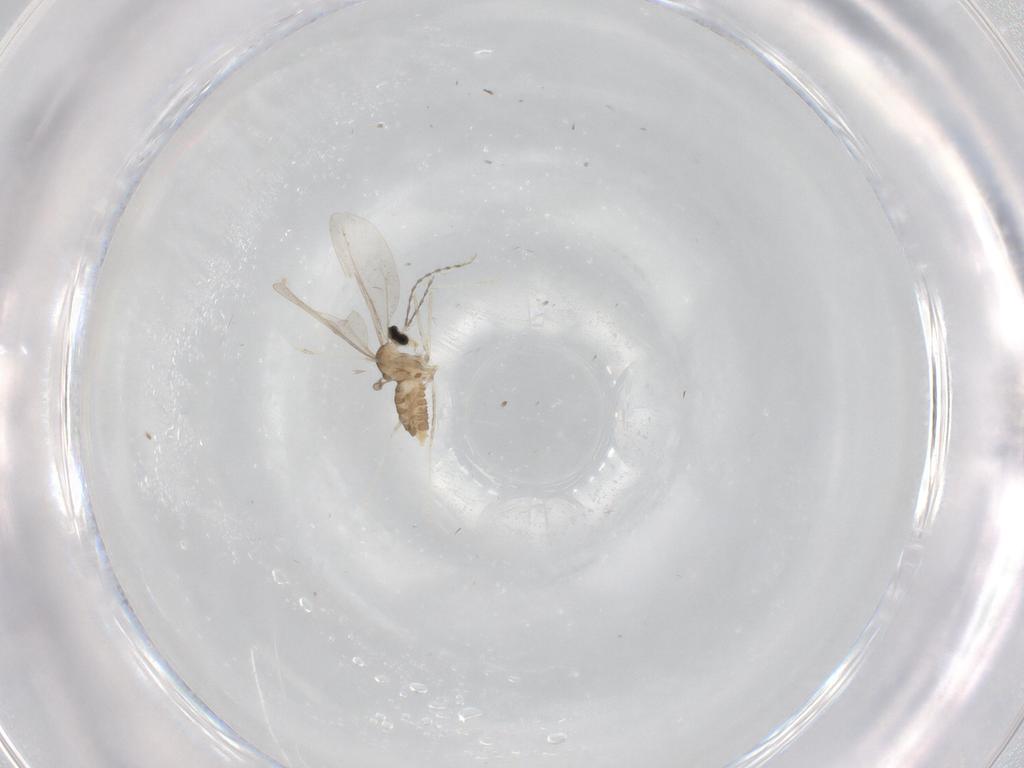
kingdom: Animalia
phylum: Arthropoda
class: Insecta
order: Diptera
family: Cecidomyiidae
